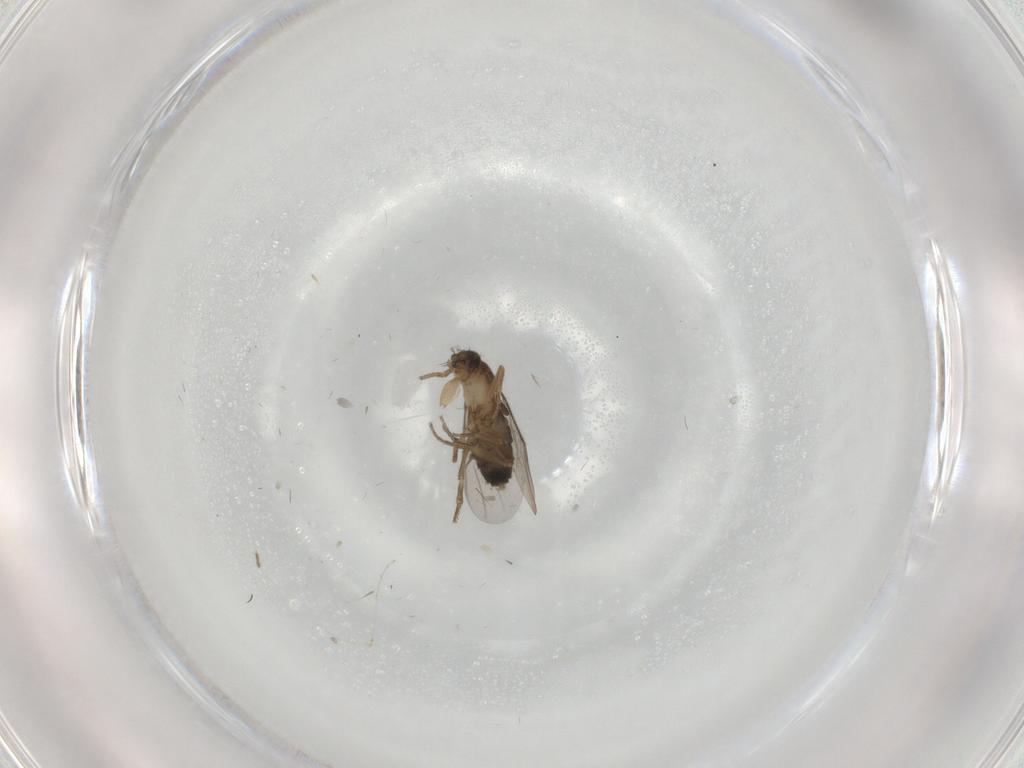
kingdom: Animalia
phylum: Arthropoda
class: Insecta
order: Diptera
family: Phoridae
